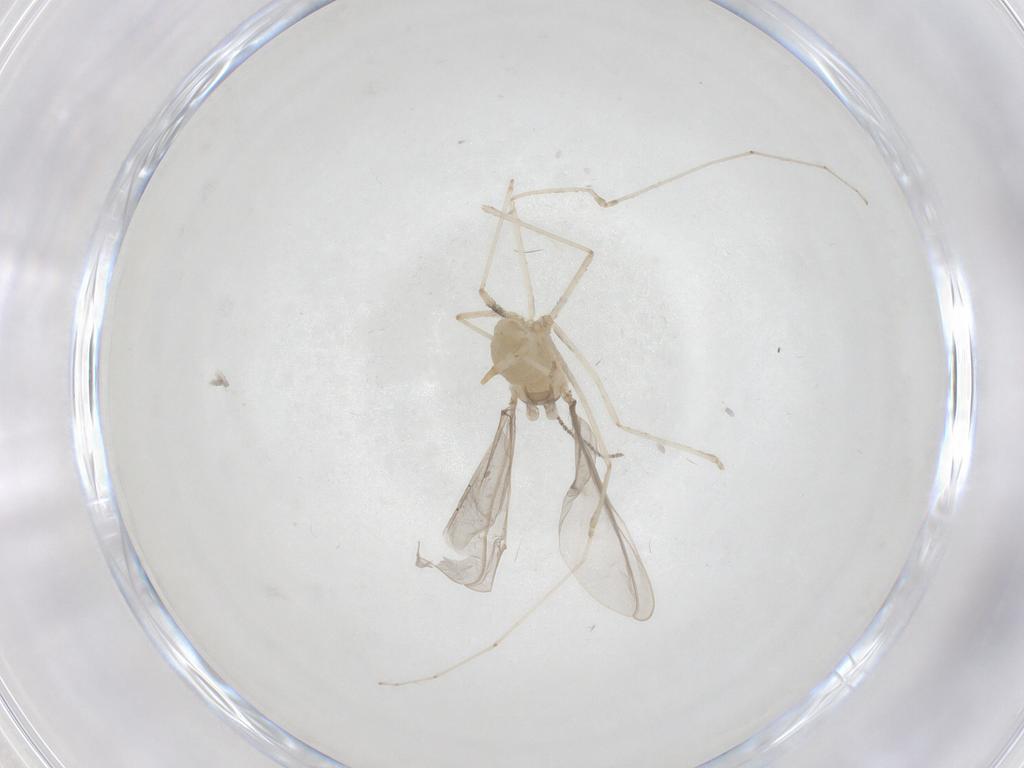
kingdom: Animalia
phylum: Arthropoda
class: Insecta
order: Diptera
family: Cecidomyiidae
